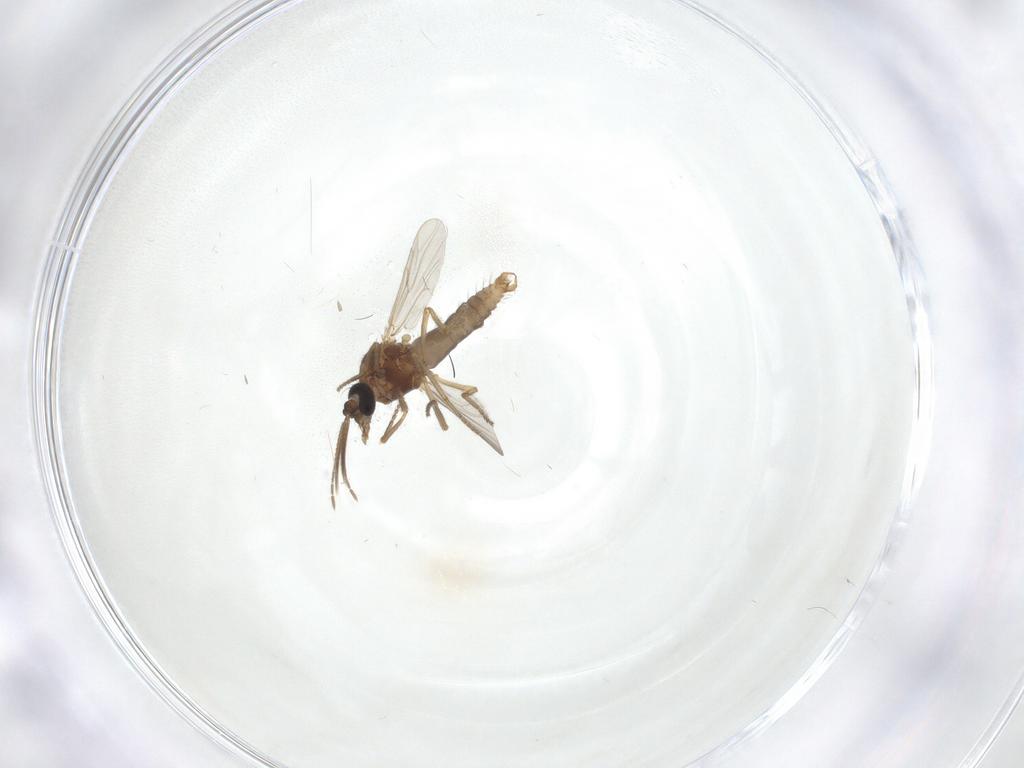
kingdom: Animalia
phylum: Arthropoda
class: Insecta
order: Diptera
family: Ceratopogonidae
